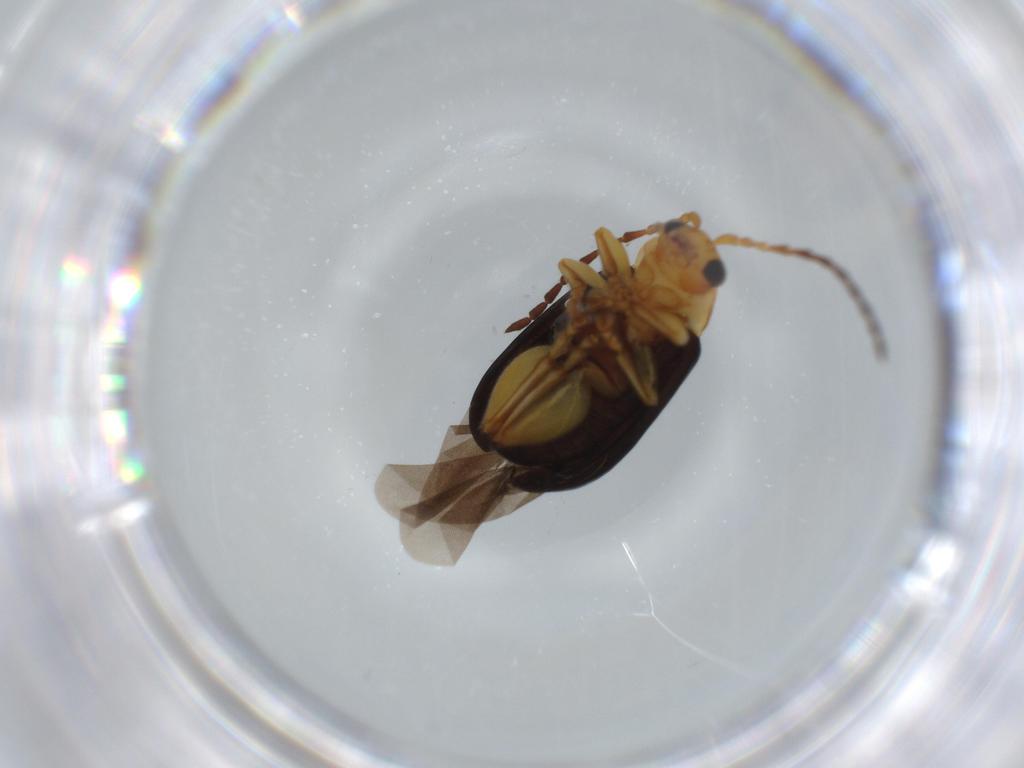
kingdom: Animalia
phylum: Arthropoda
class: Insecta
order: Coleoptera
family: Chrysomelidae
